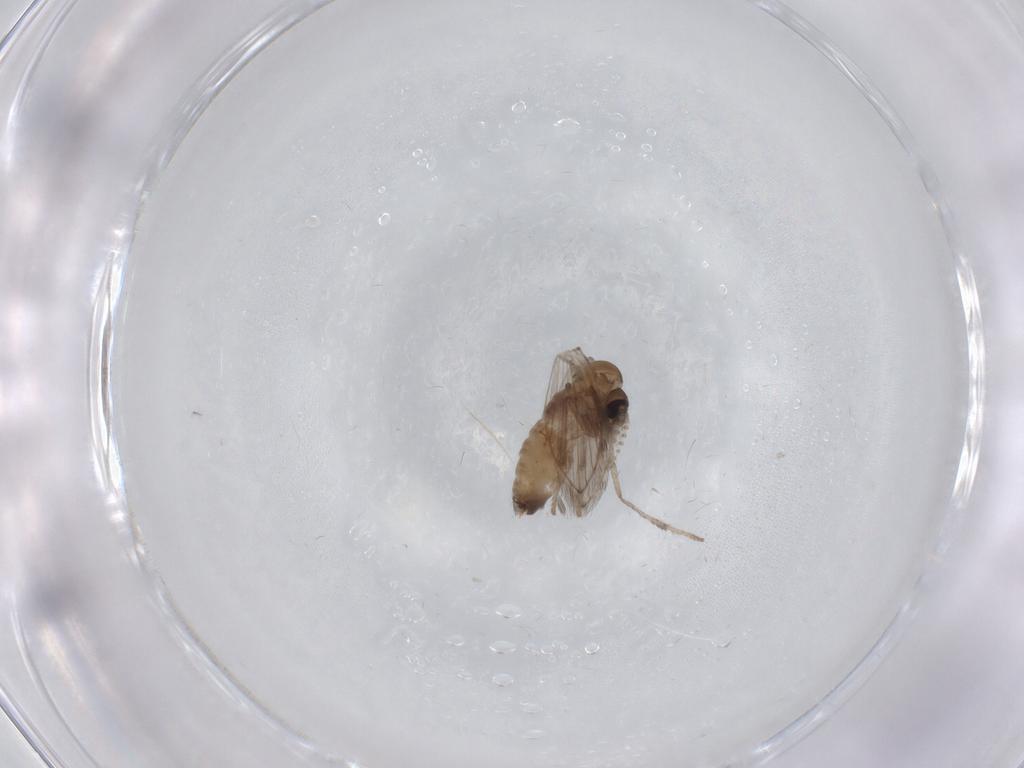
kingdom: Animalia
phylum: Arthropoda
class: Insecta
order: Diptera
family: Psychodidae
